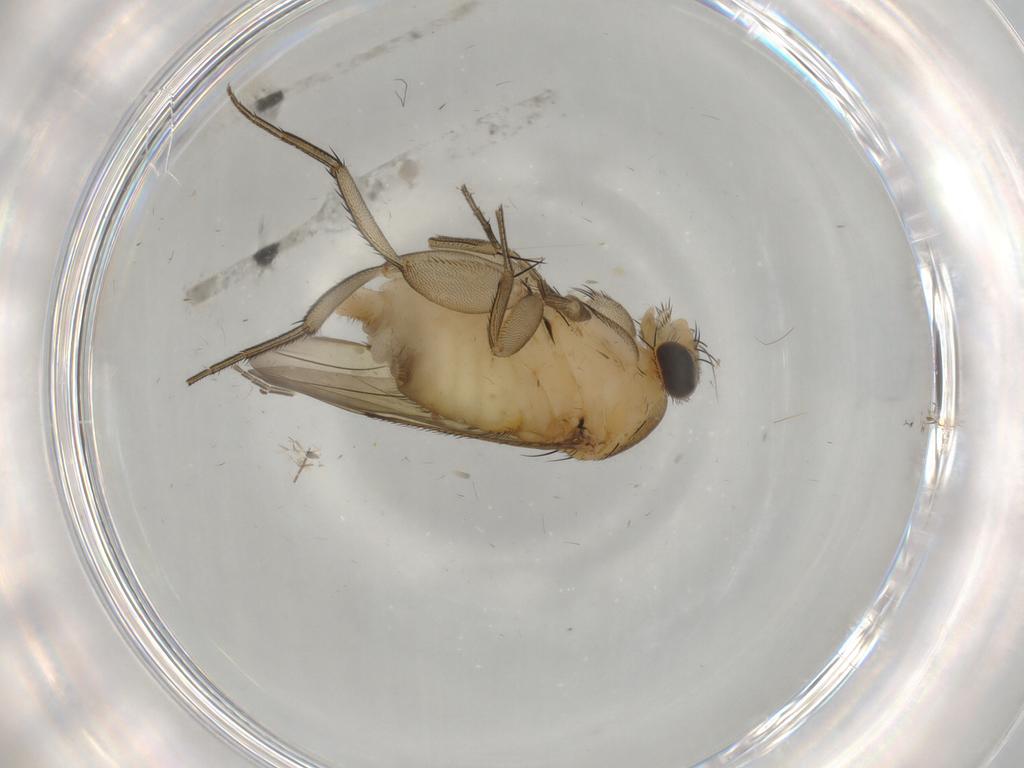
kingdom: Animalia
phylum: Arthropoda
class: Insecta
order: Diptera
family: Phoridae
